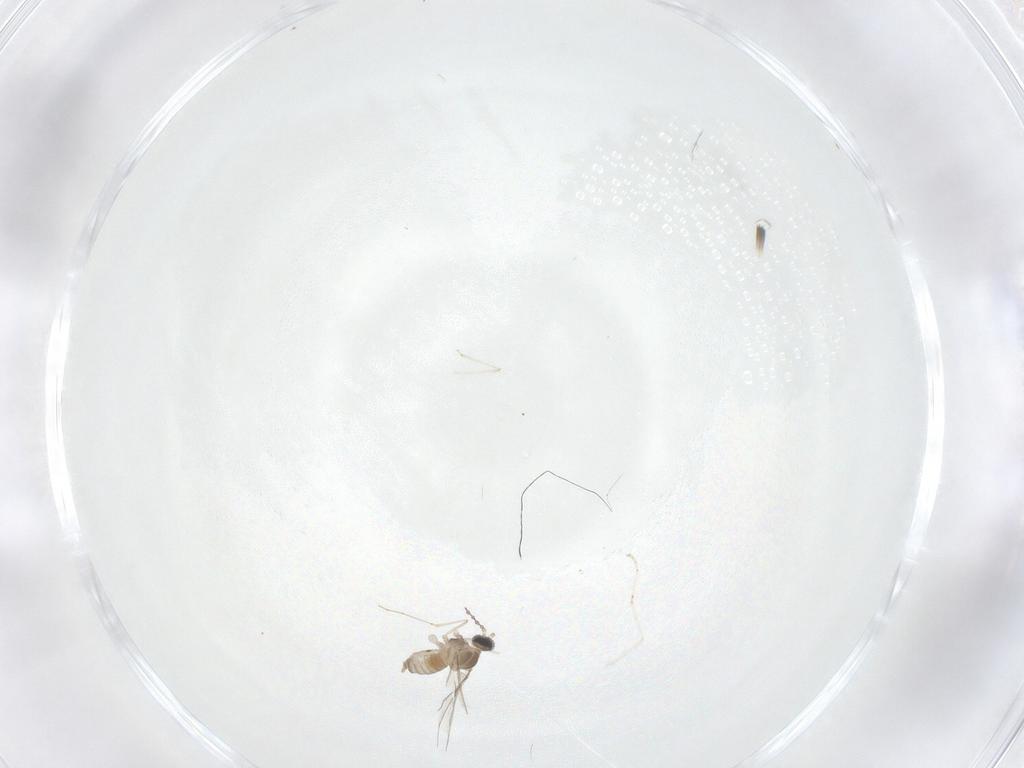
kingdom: Animalia
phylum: Arthropoda
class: Insecta
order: Diptera
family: Cecidomyiidae
